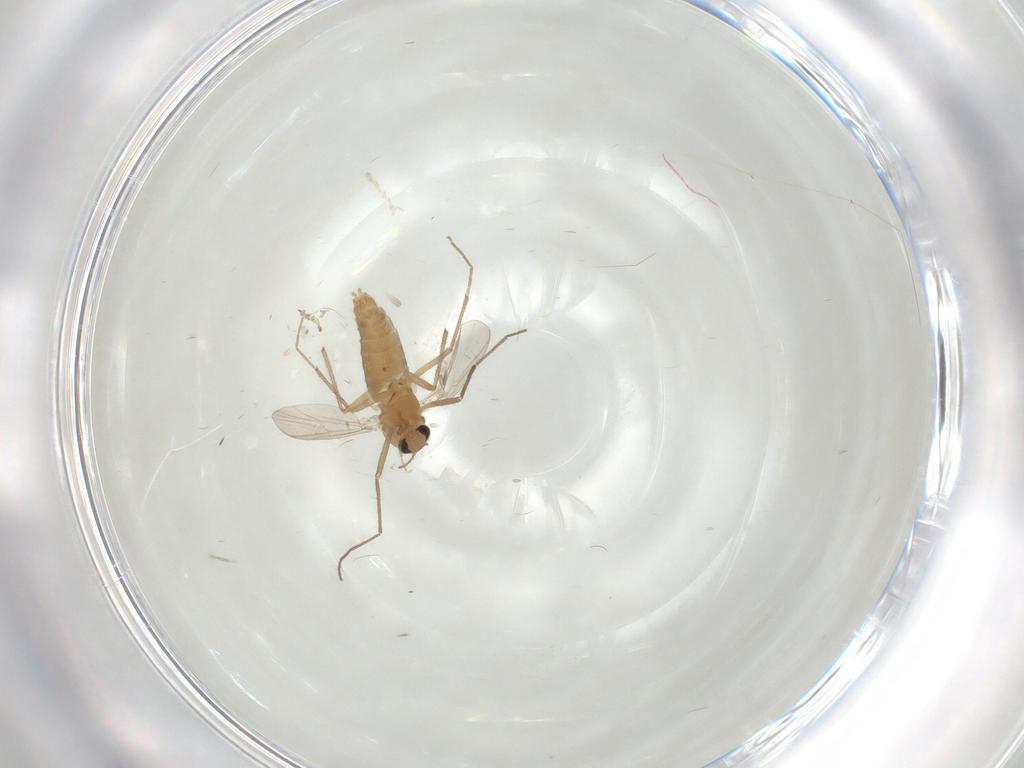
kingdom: Animalia
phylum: Arthropoda
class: Insecta
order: Diptera
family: Chironomidae
